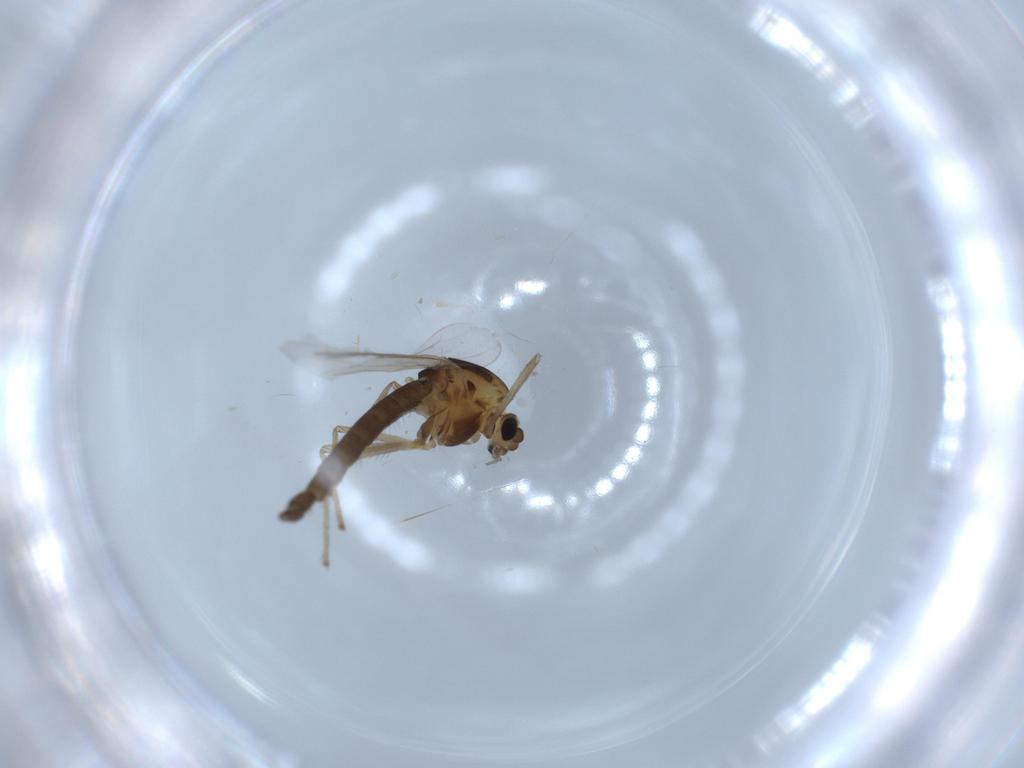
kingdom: Animalia
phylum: Arthropoda
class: Insecta
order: Diptera
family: Chironomidae
